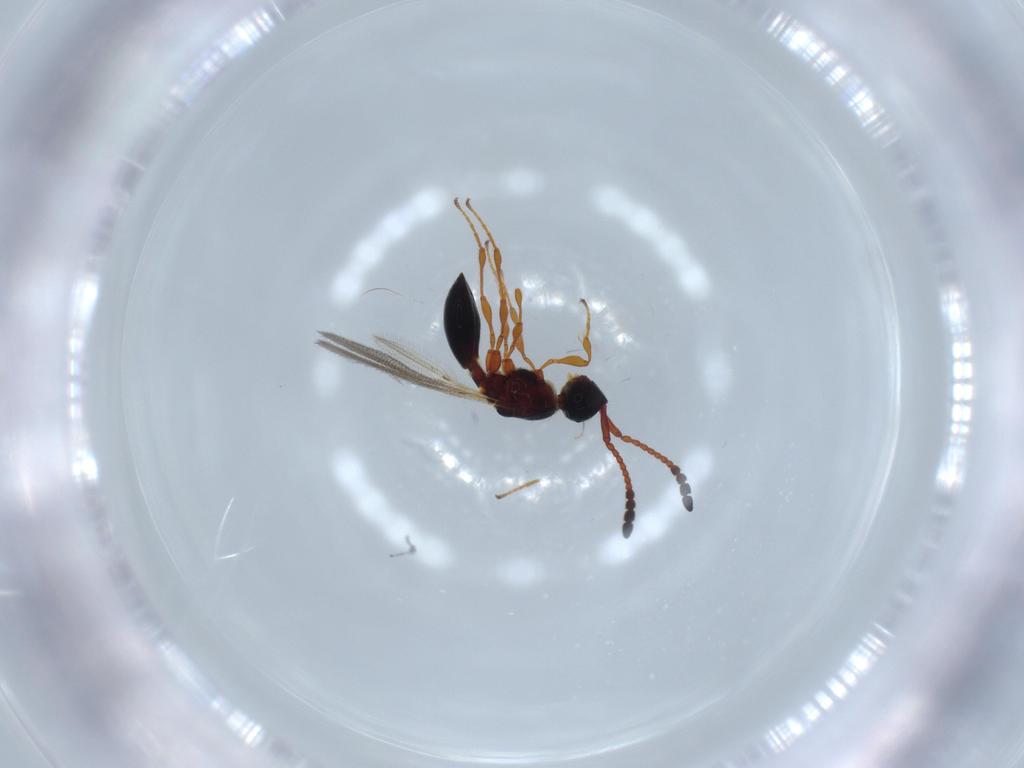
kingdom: Animalia
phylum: Arthropoda
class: Insecta
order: Hymenoptera
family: Diapriidae
